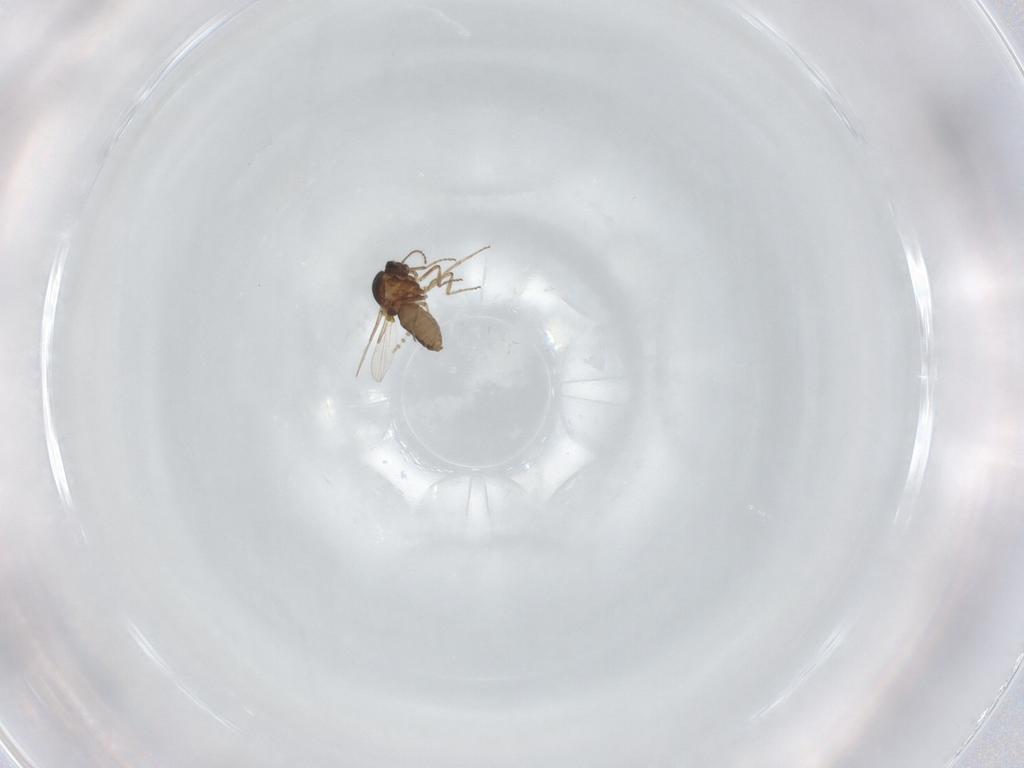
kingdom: Animalia
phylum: Arthropoda
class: Insecta
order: Diptera
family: Ceratopogonidae
